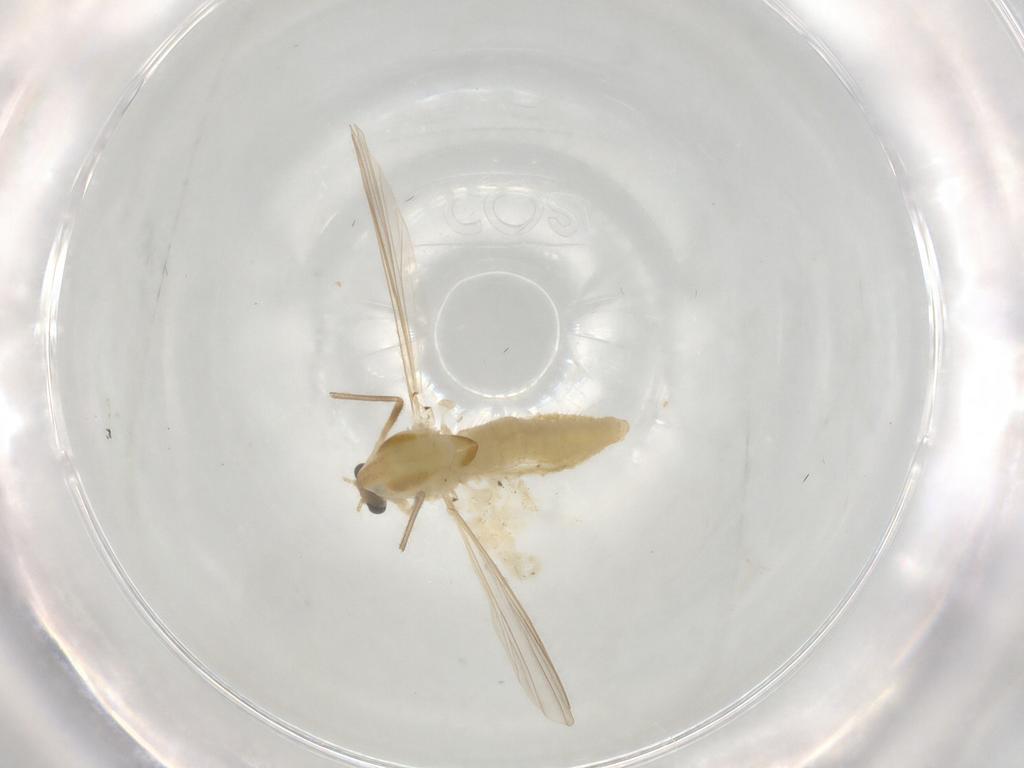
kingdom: Animalia
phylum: Arthropoda
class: Insecta
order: Diptera
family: Chironomidae
